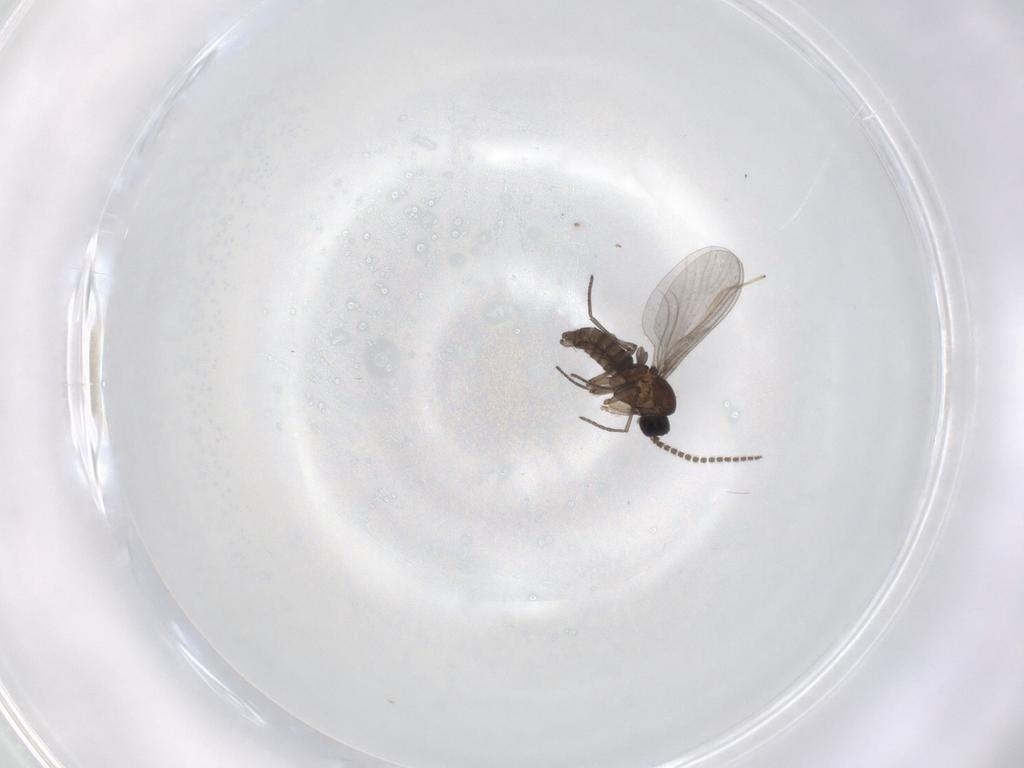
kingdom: Animalia
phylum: Arthropoda
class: Insecta
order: Diptera
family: Chironomidae
